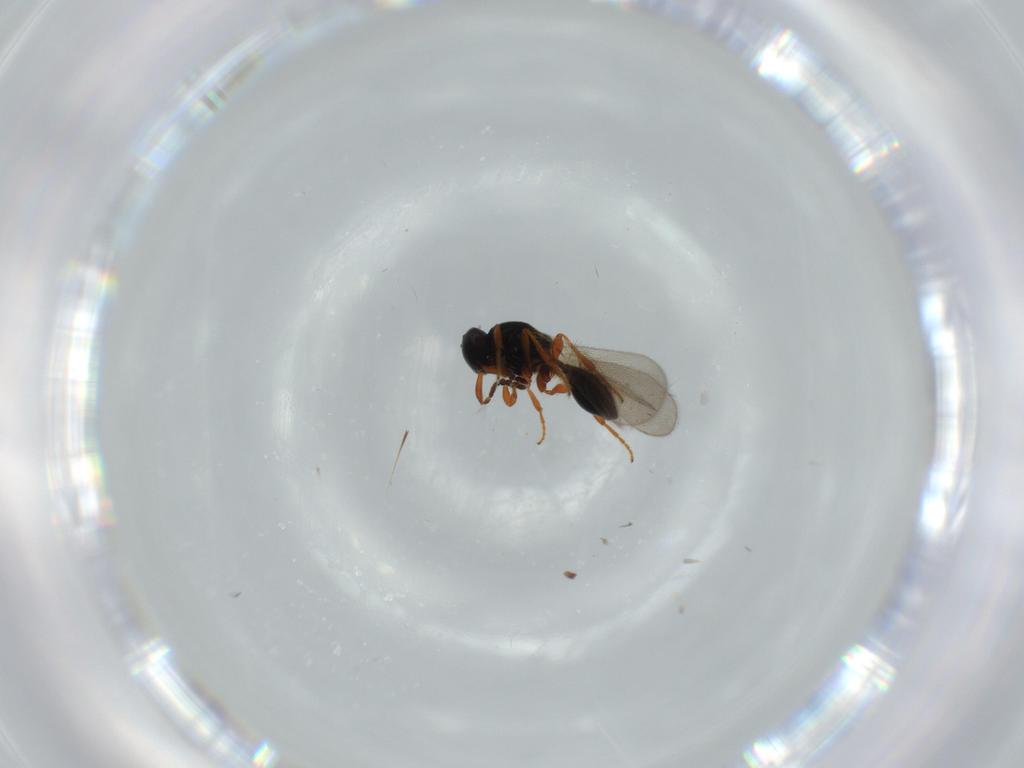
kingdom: Animalia
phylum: Arthropoda
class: Insecta
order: Hymenoptera
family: Platygastridae
